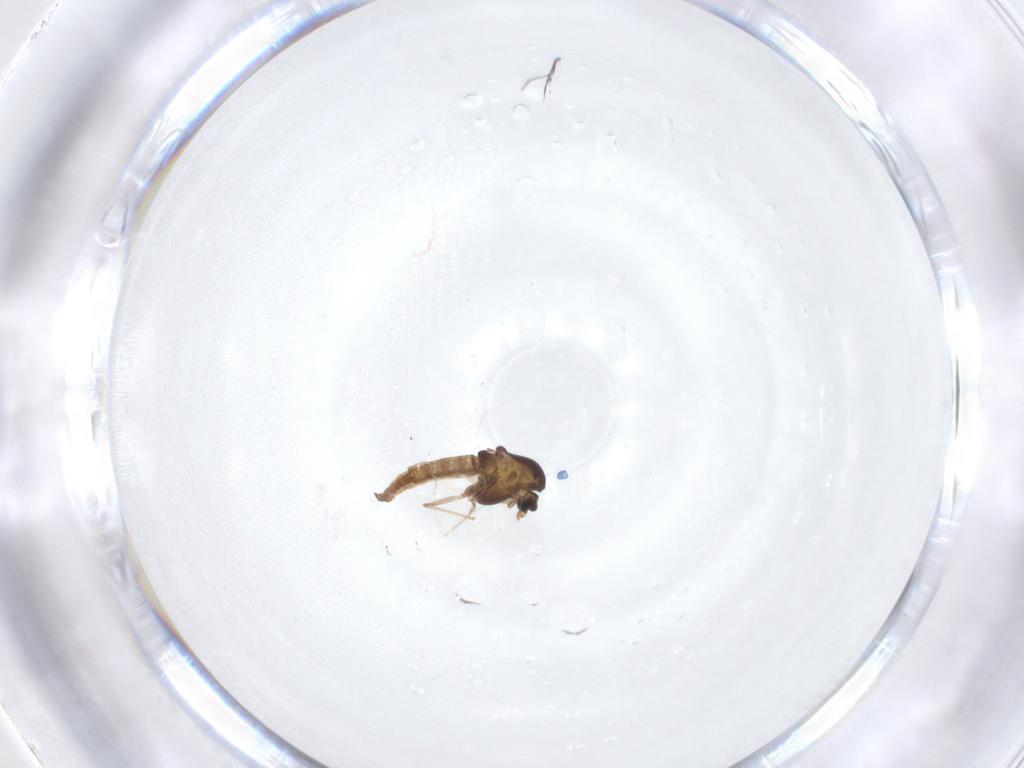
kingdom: Animalia
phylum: Arthropoda
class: Insecta
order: Diptera
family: Chironomidae
